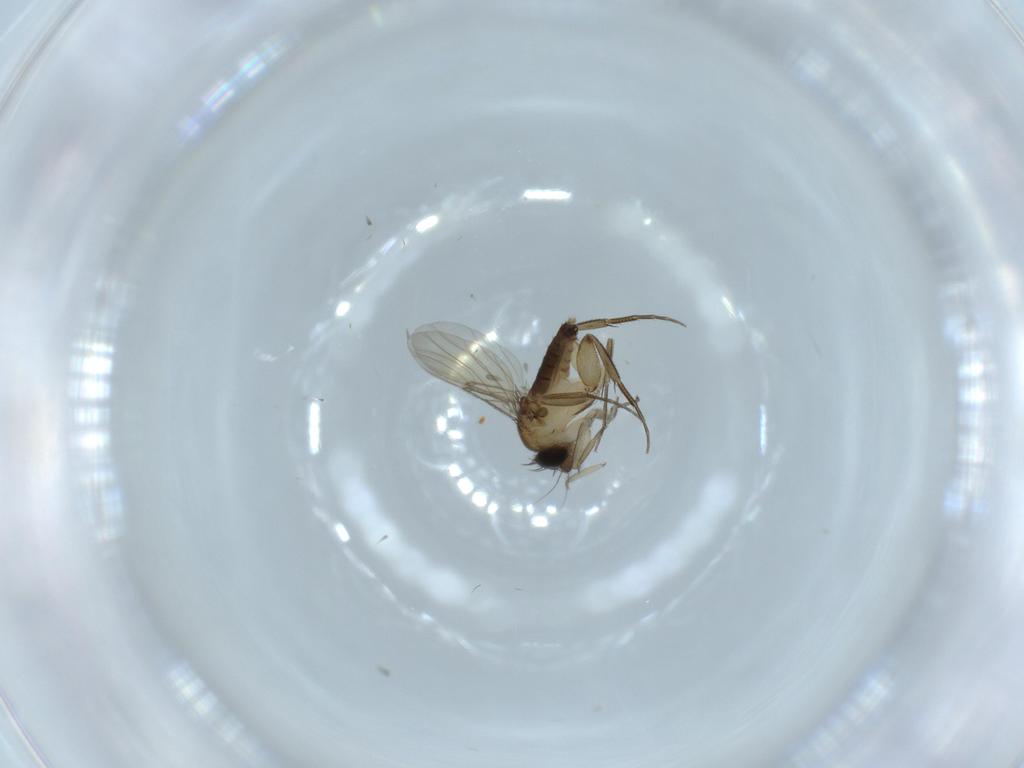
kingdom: Animalia
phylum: Arthropoda
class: Insecta
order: Diptera
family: Phoridae
